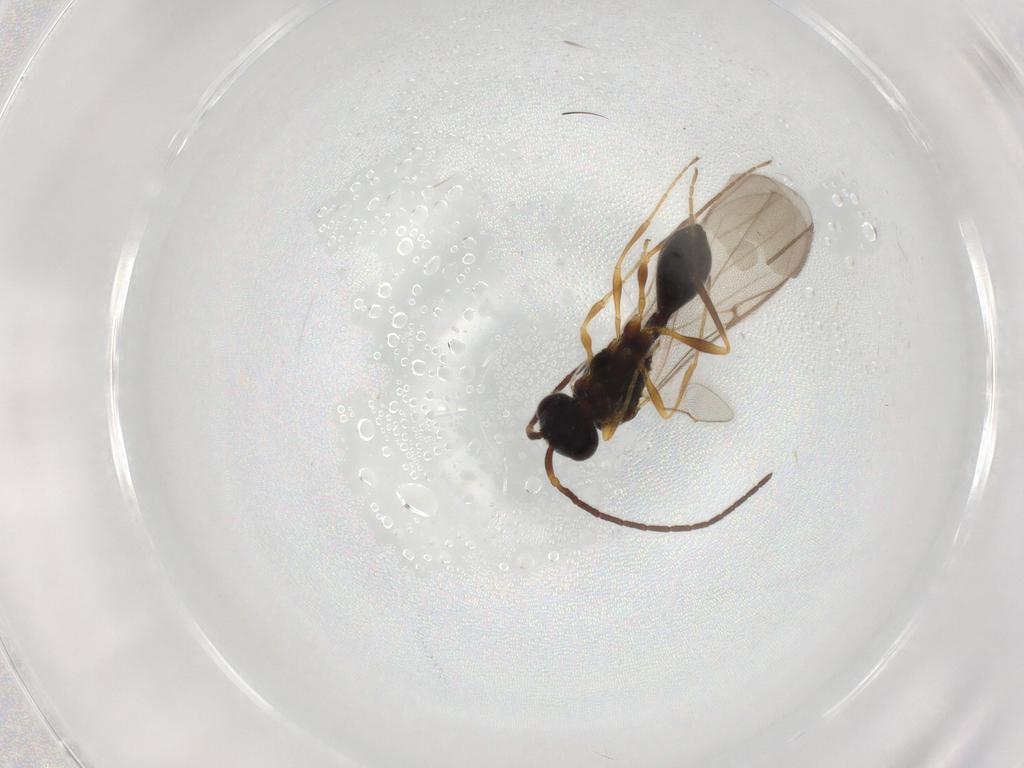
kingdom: Animalia
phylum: Arthropoda
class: Insecta
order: Hymenoptera
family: Diapriidae
